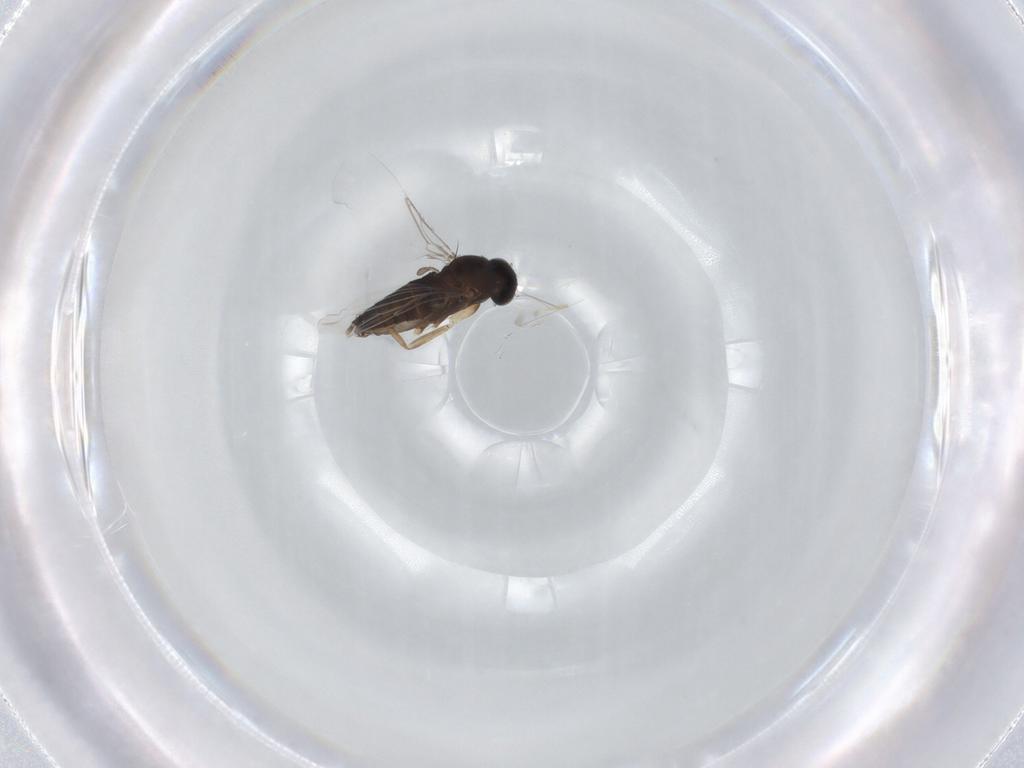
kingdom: Animalia
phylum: Arthropoda
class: Insecta
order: Diptera
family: Phoridae
